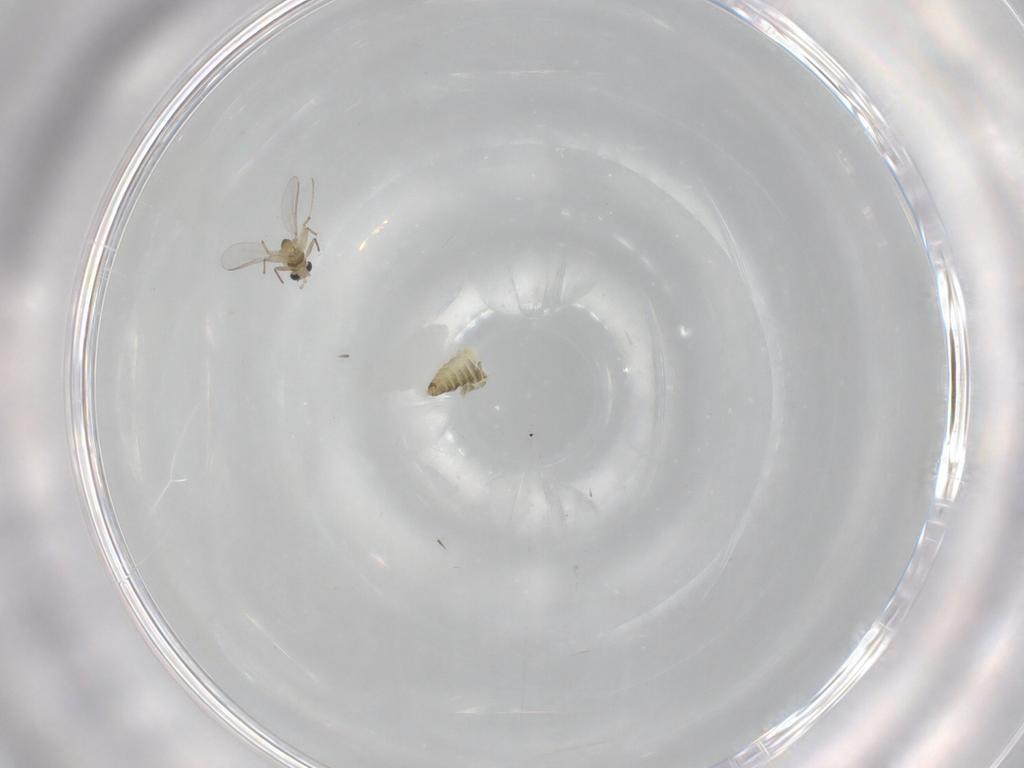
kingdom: Animalia
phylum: Arthropoda
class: Insecta
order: Diptera
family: Chironomidae
